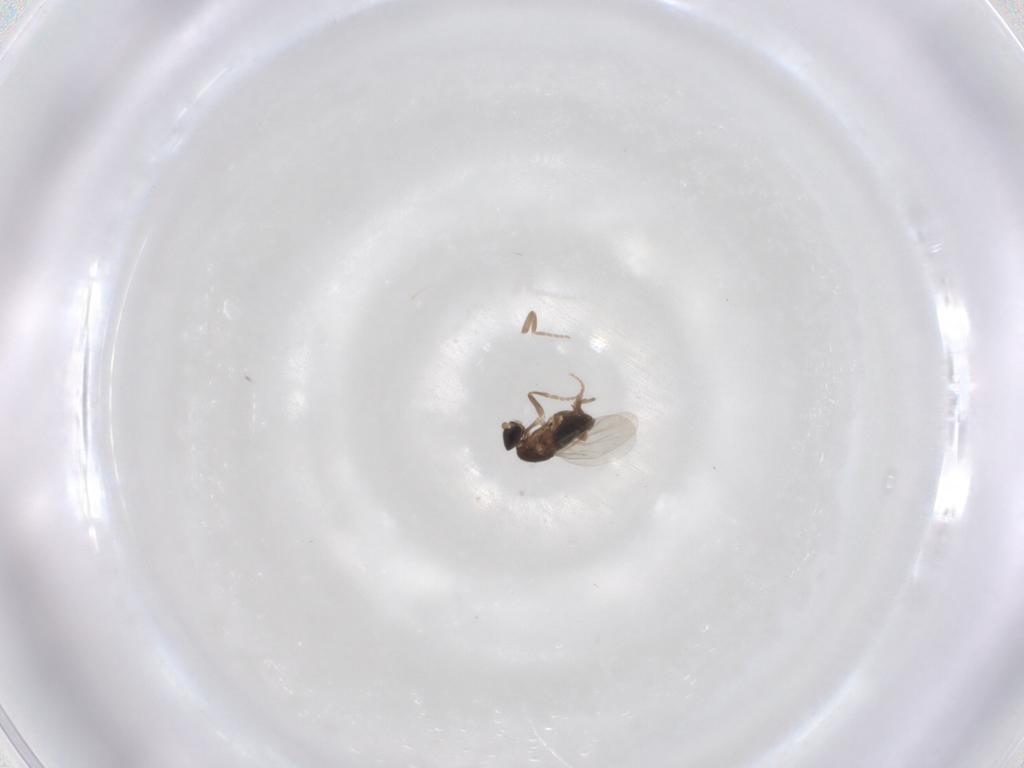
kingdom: Animalia
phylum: Arthropoda
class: Insecta
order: Diptera
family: Phoridae
